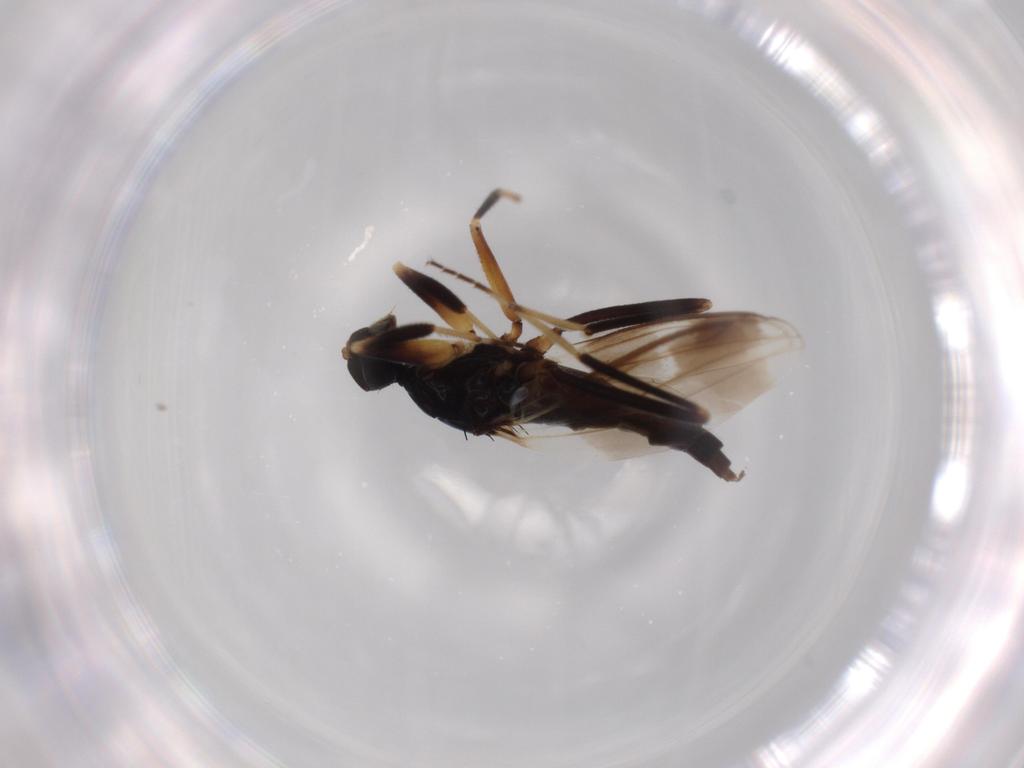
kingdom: Animalia
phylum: Arthropoda
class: Insecta
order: Diptera
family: Hybotidae
